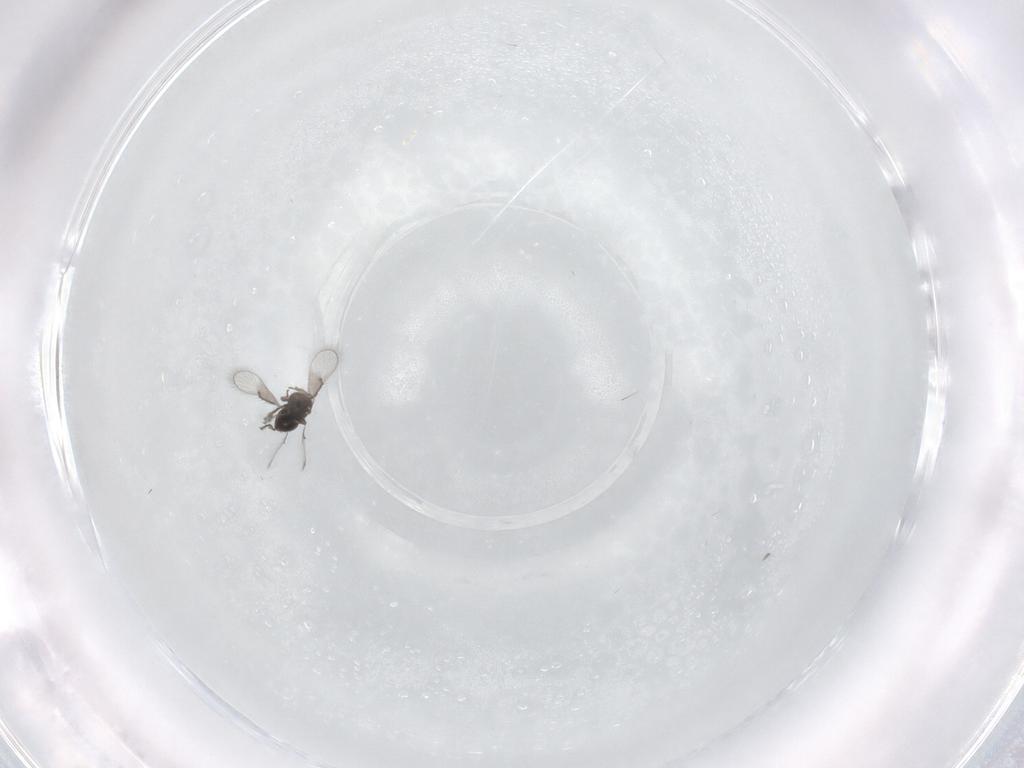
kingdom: Animalia
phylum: Arthropoda
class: Insecta
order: Hymenoptera
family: Trichogrammatidae
